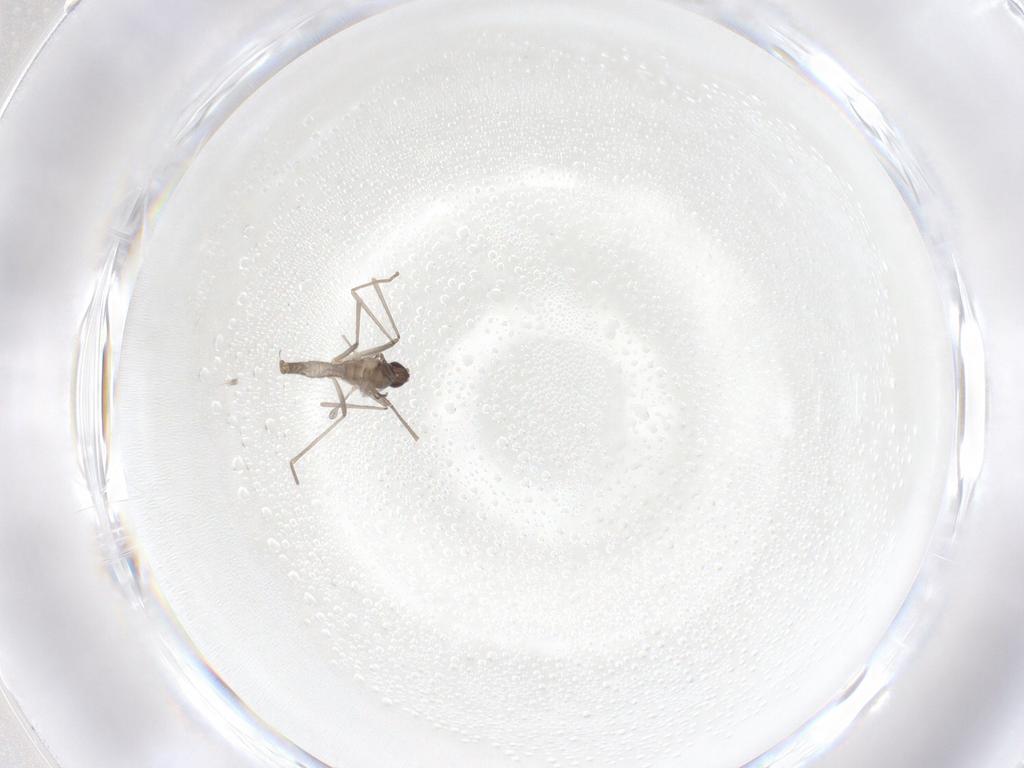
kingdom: Animalia
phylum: Arthropoda
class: Insecta
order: Diptera
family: Cecidomyiidae
